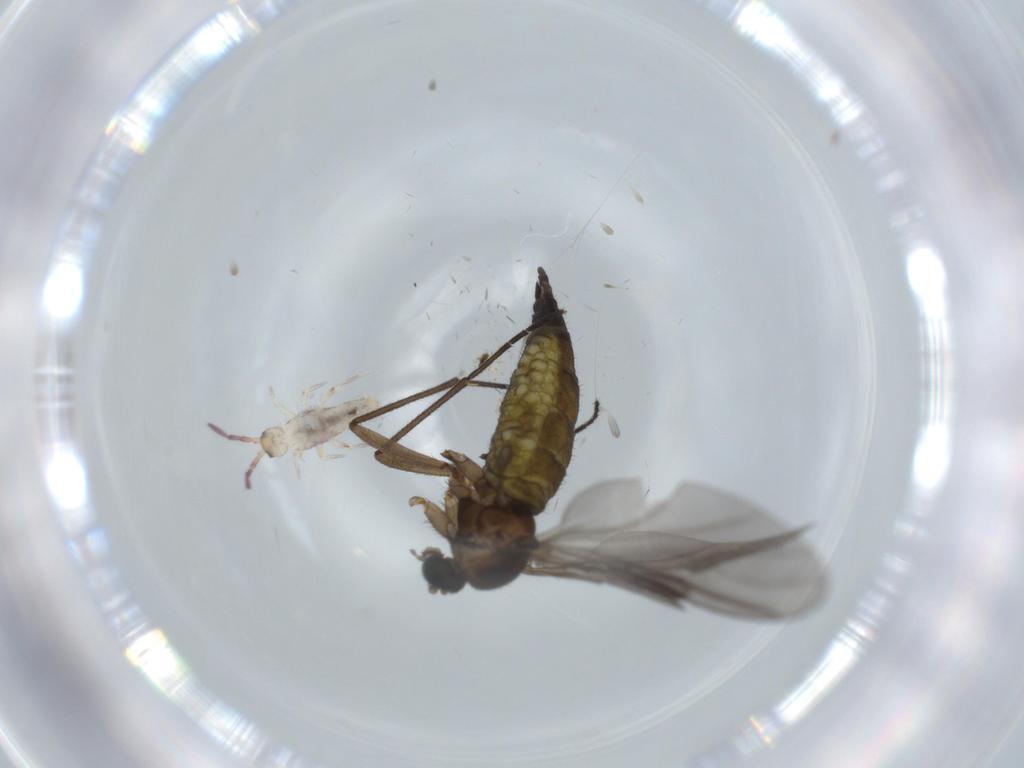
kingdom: Animalia
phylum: Arthropoda
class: Insecta
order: Diptera
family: Sciaridae
